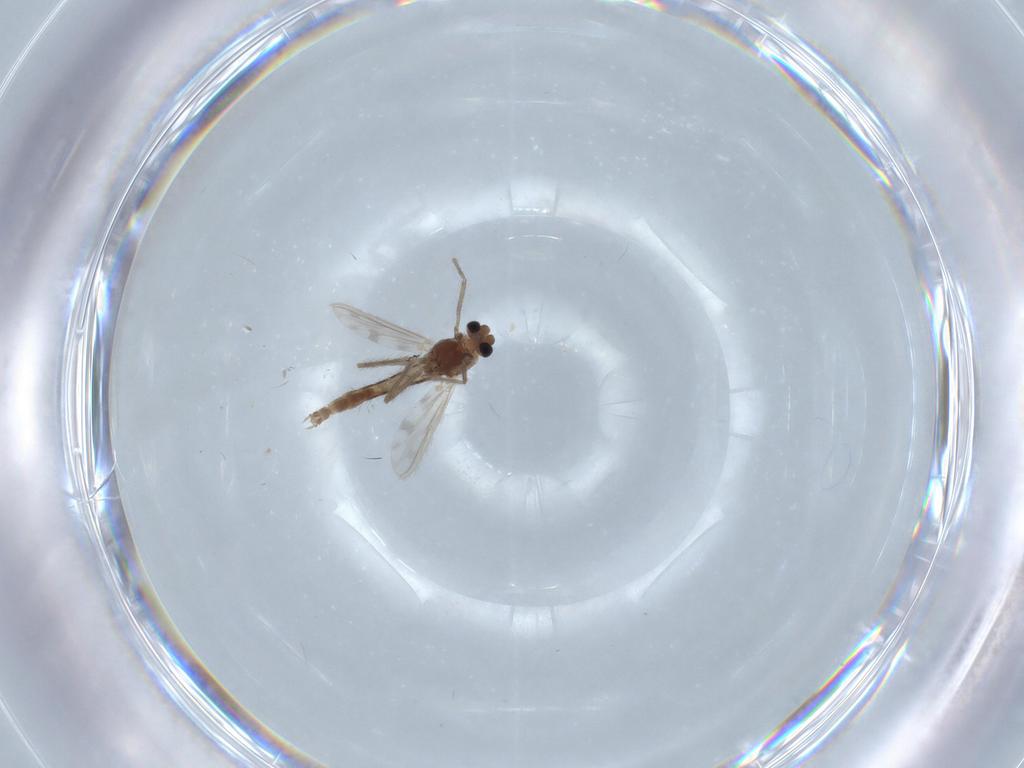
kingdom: Animalia
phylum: Arthropoda
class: Insecta
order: Diptera
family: Chironomidae
